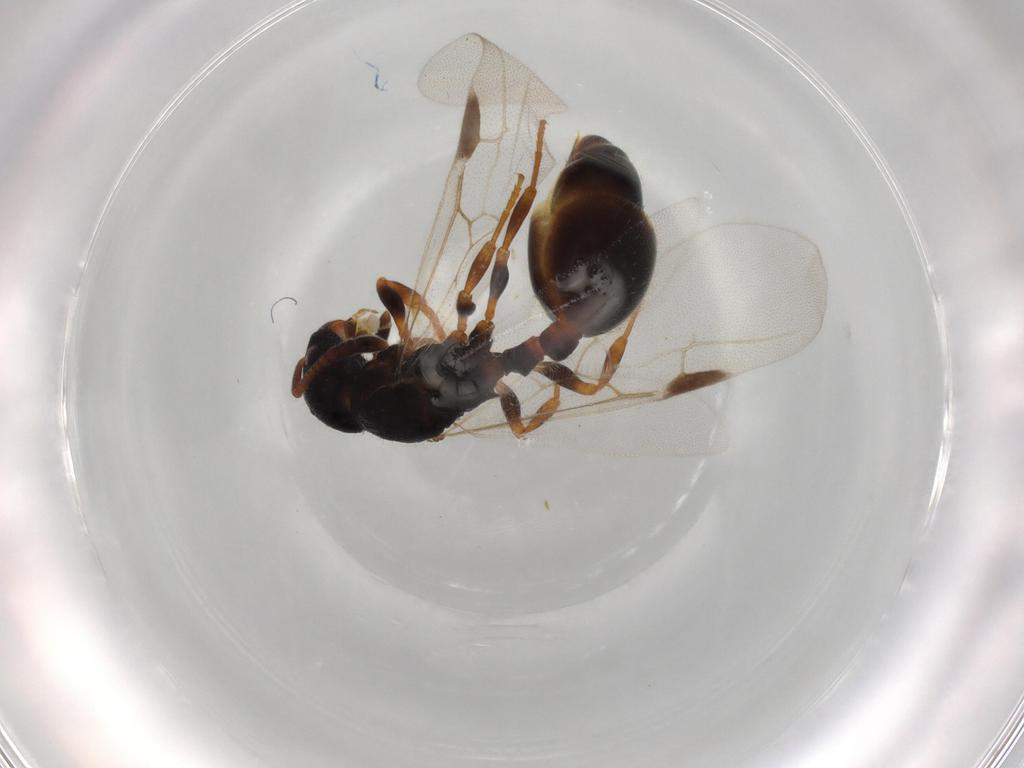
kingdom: Animalia
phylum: Arthropoda
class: Insecta
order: Hymenoptera
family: Formicidae
